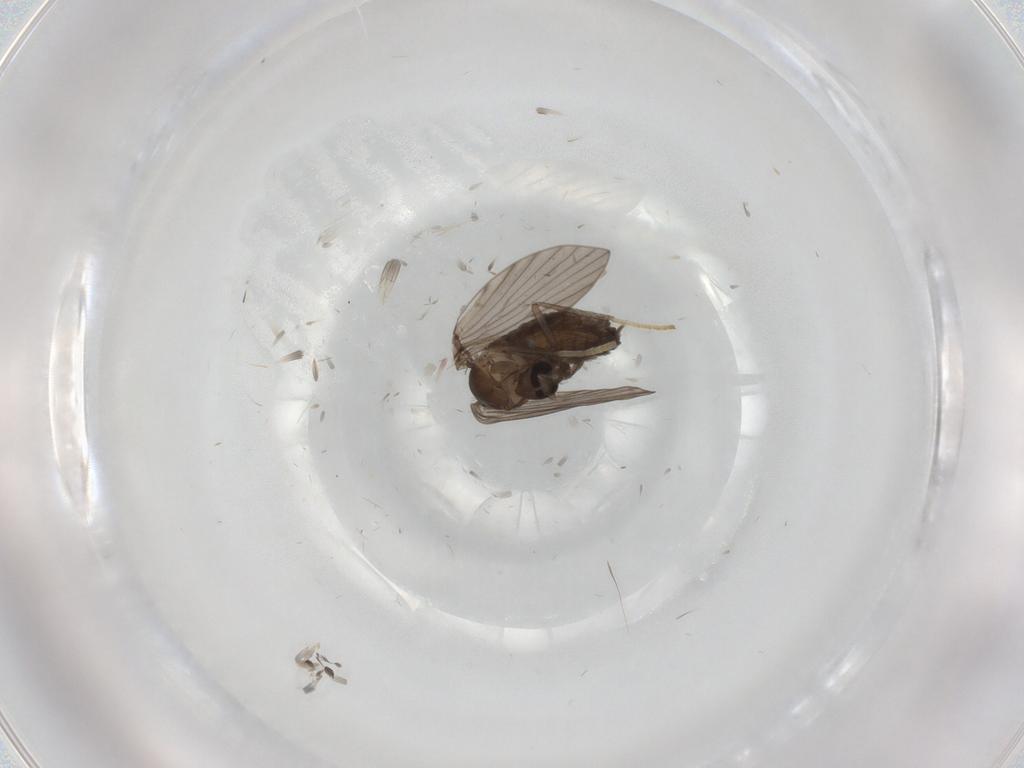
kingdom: Animalia
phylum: Arthropoda
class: Insecta
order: Diptera
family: Psychodidae
